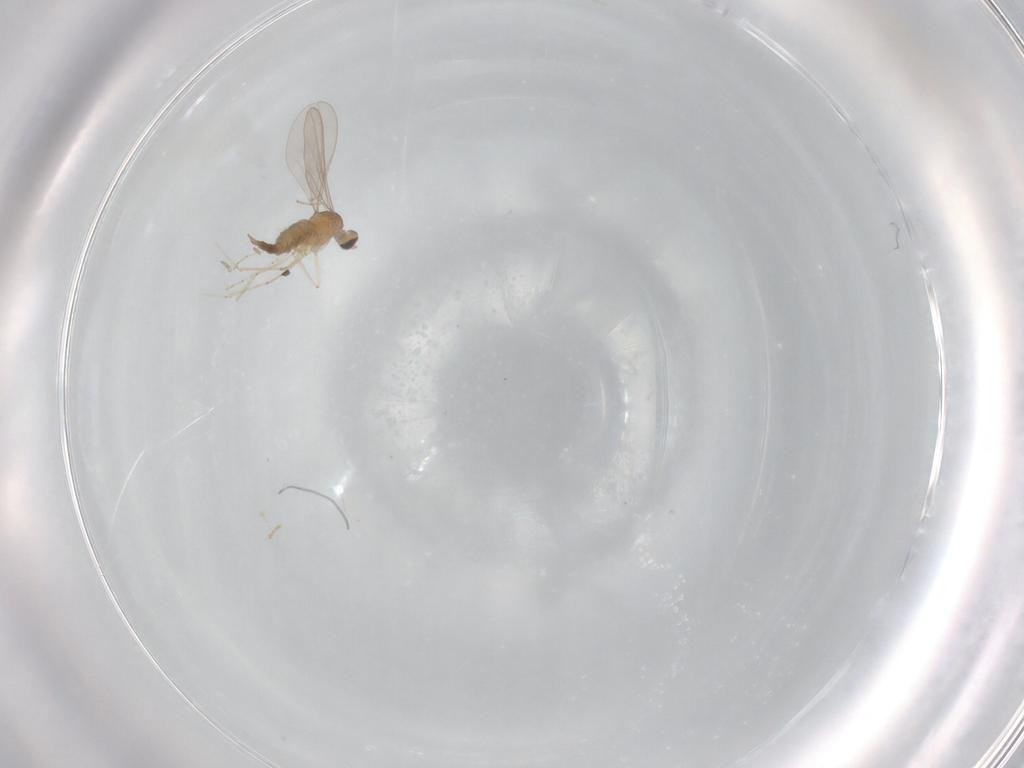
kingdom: Animalia
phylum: Arthropoda
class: Insecta
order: Diptera
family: Cecidomyiidae
